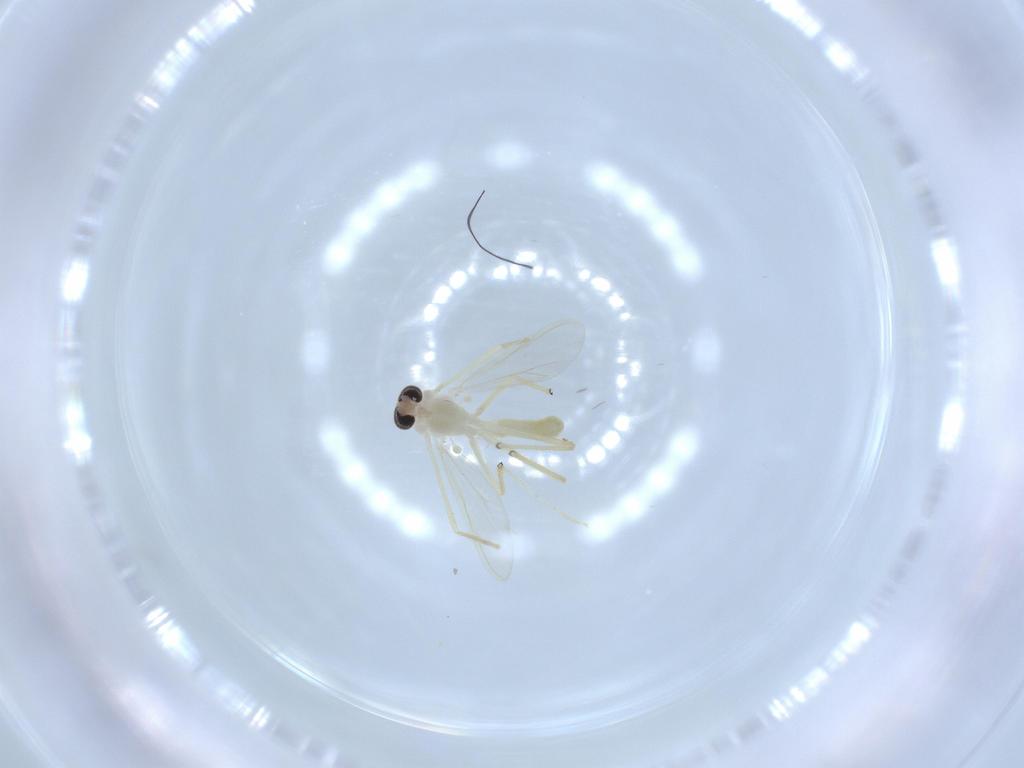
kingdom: Animalia
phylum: Arthropoda
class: Insecta
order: Diptera
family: Chironomidae
